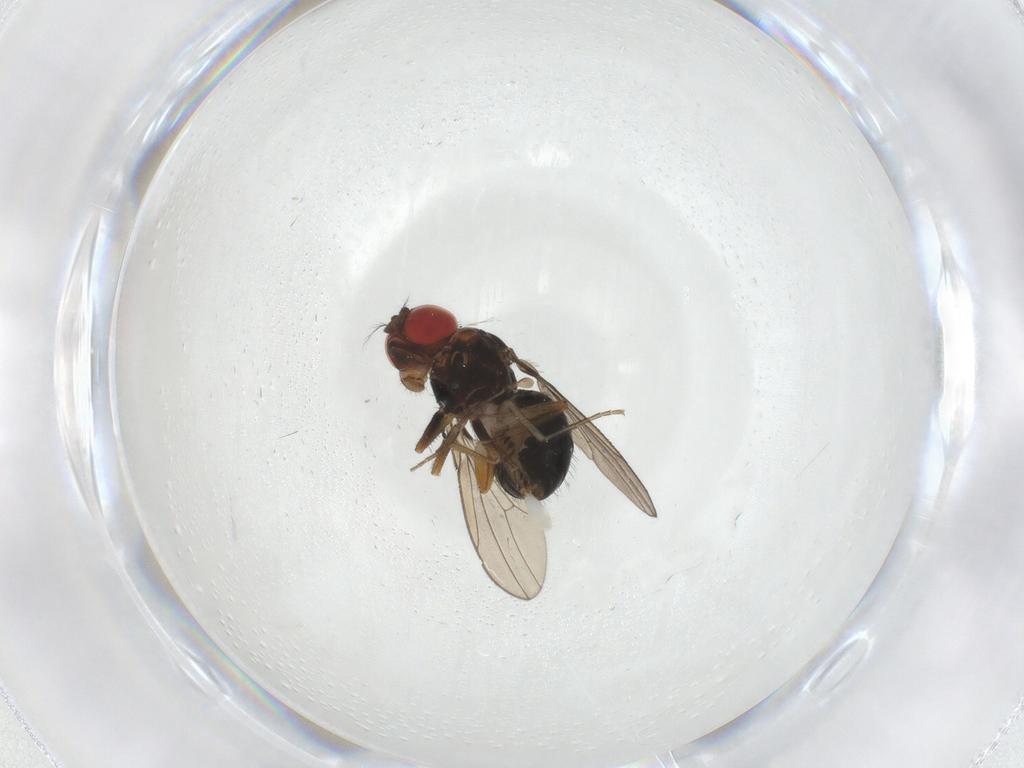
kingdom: Animalia
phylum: Arthropoda
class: Insecta
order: Diptera
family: Drosophilidae
